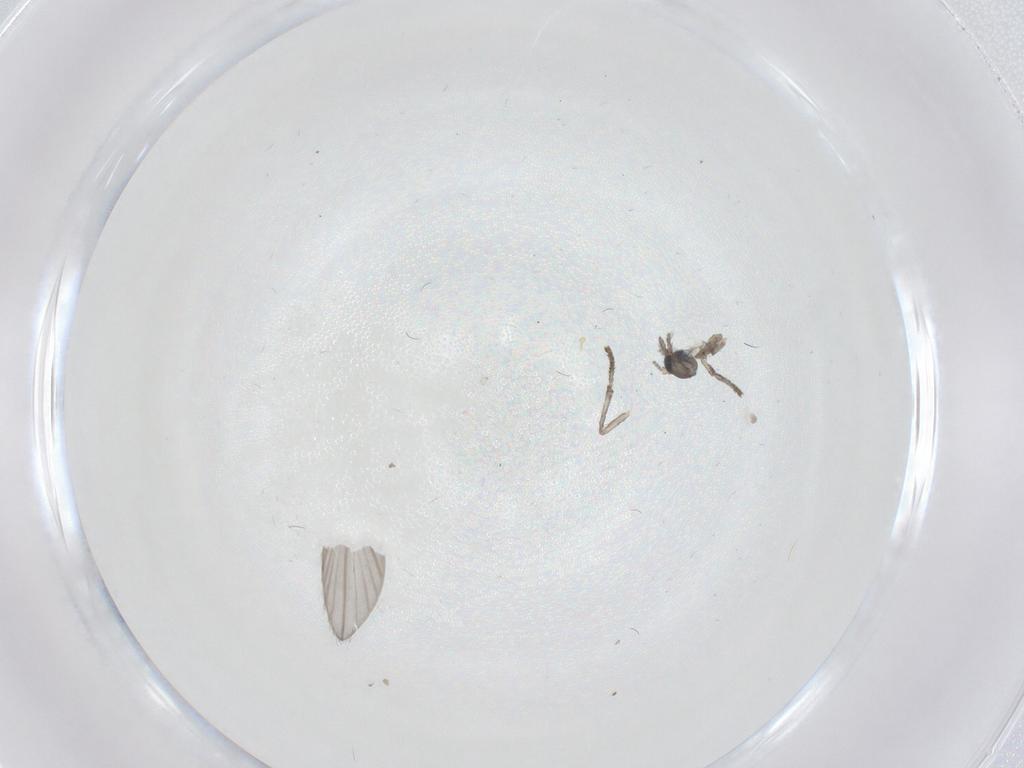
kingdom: Animalia
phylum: Arthropoda
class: Insecta
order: Diptera
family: Psychodidae
